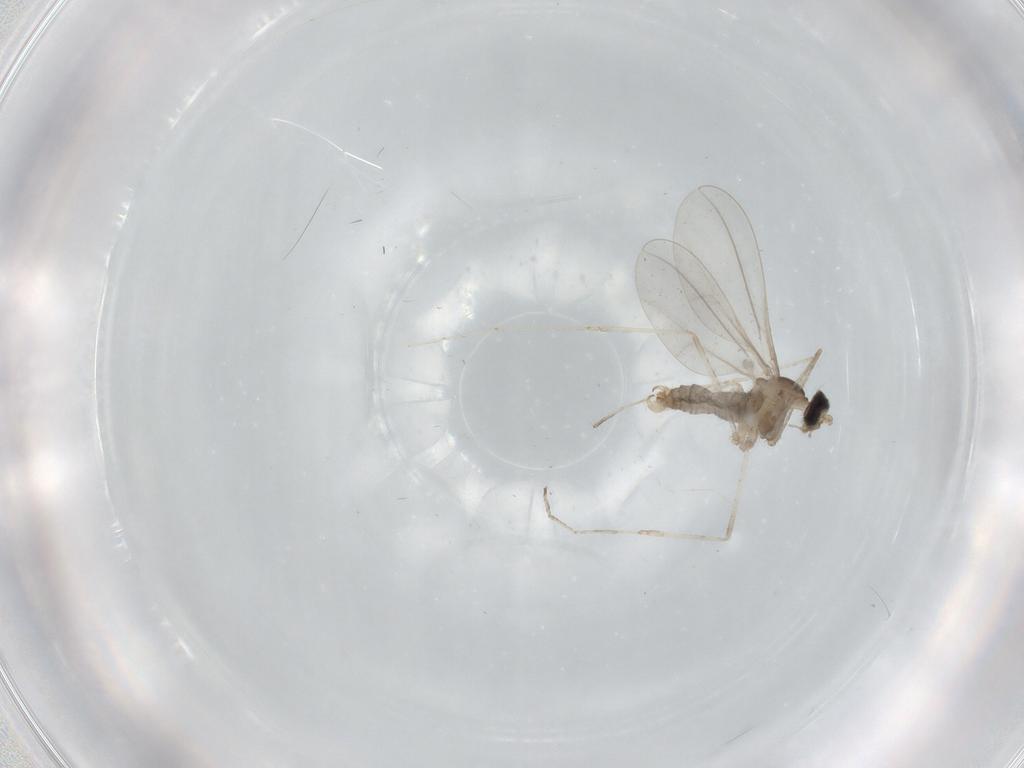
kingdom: Animalia
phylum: Arthropoda
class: Insecta
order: Diptera
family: Cecidomyiidae
